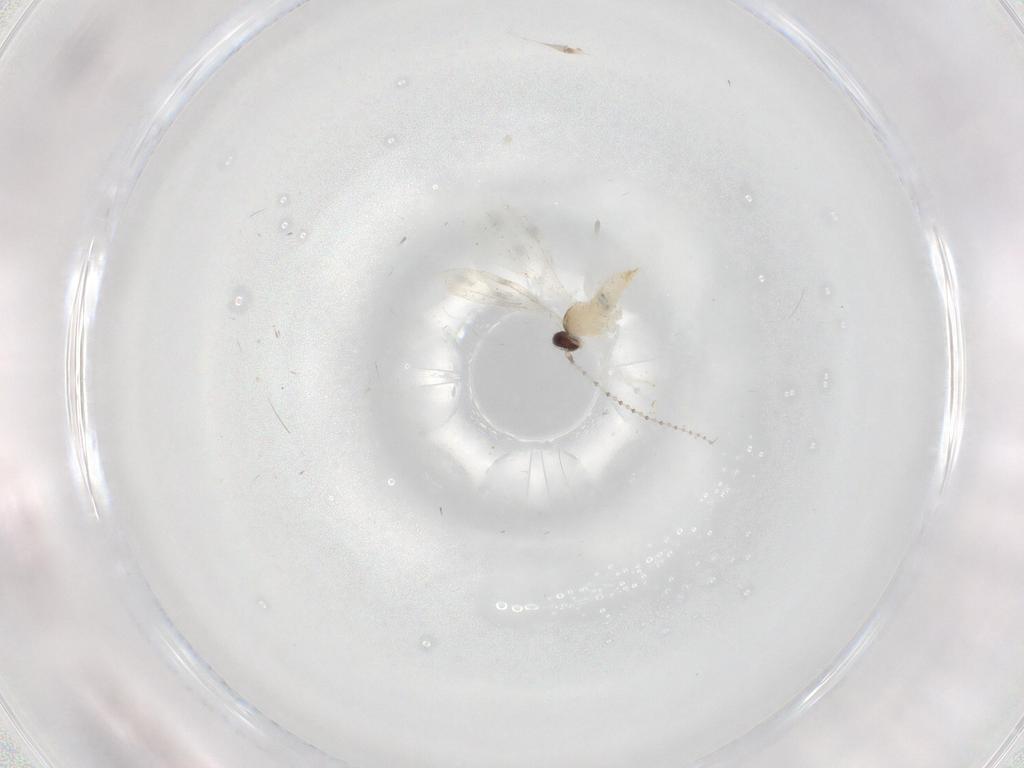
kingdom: Animalia
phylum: Arthropoda
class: Insecta
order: Diptera
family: Cecidomyiidae
